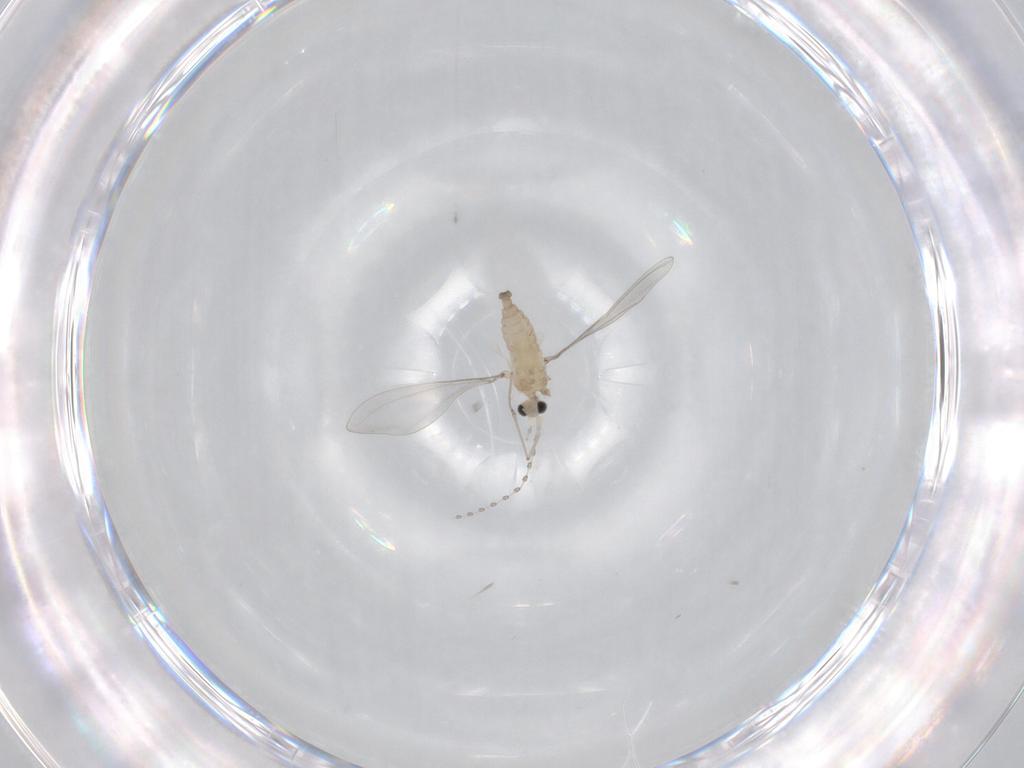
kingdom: Animalia
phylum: Arthropoda
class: Insecta
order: Diptera
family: Cecidomyiidae
